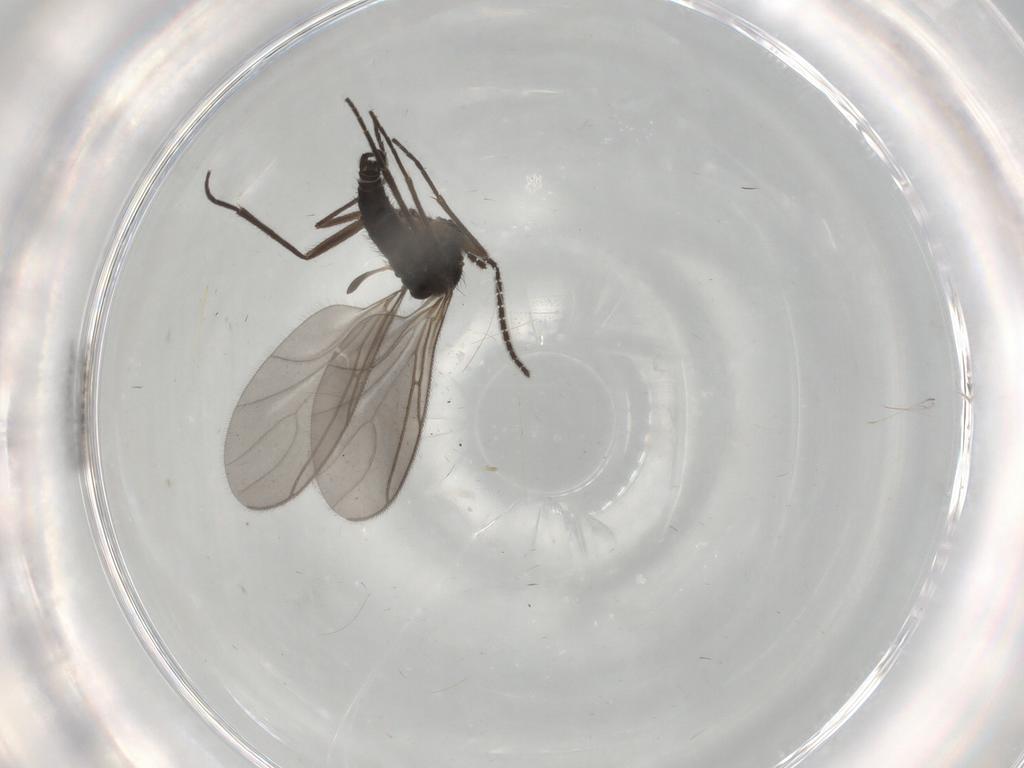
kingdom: Animalia
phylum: Arthropoda
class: Insecta
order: Diptera
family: Sciaridae
